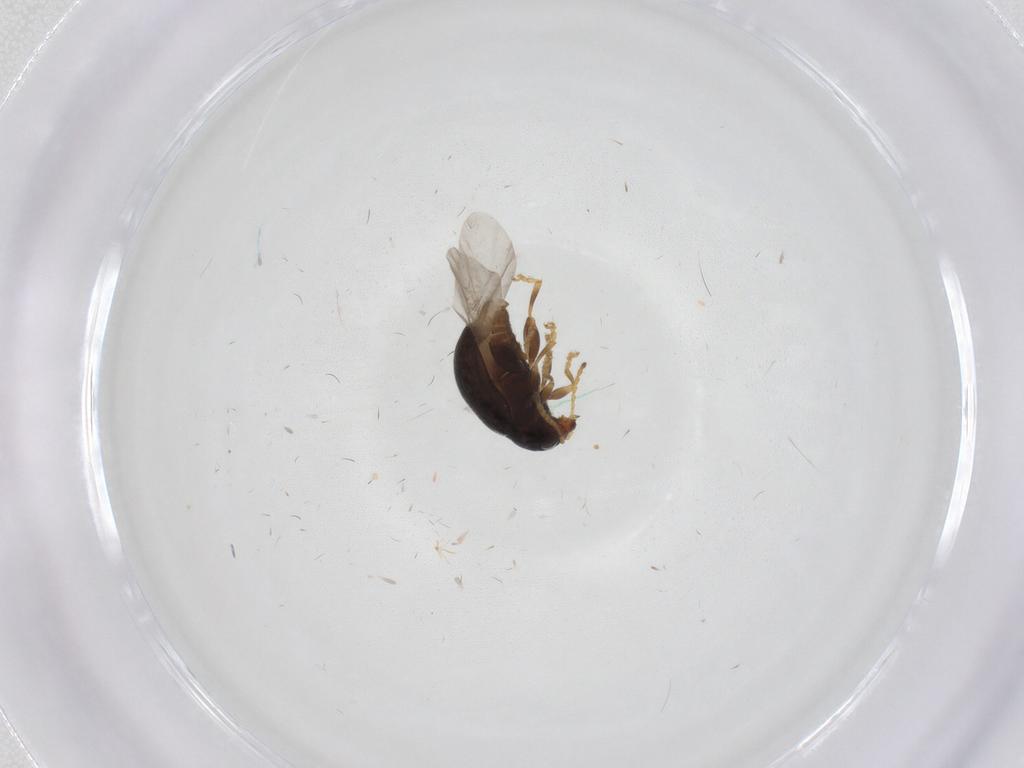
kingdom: Animalia
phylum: Arthropoda
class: Insecta
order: Coleoptera
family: Chrysomelidae
